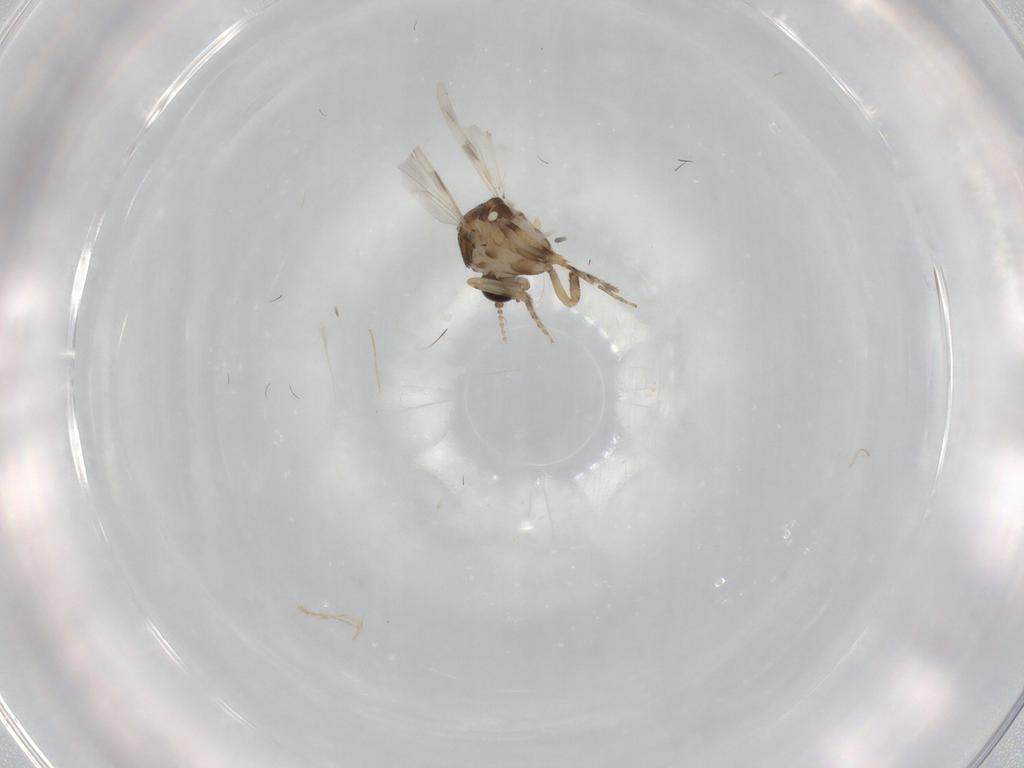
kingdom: Animalia
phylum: Arthropoda
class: Insecta
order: Diptera
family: Ceratopogonidae
